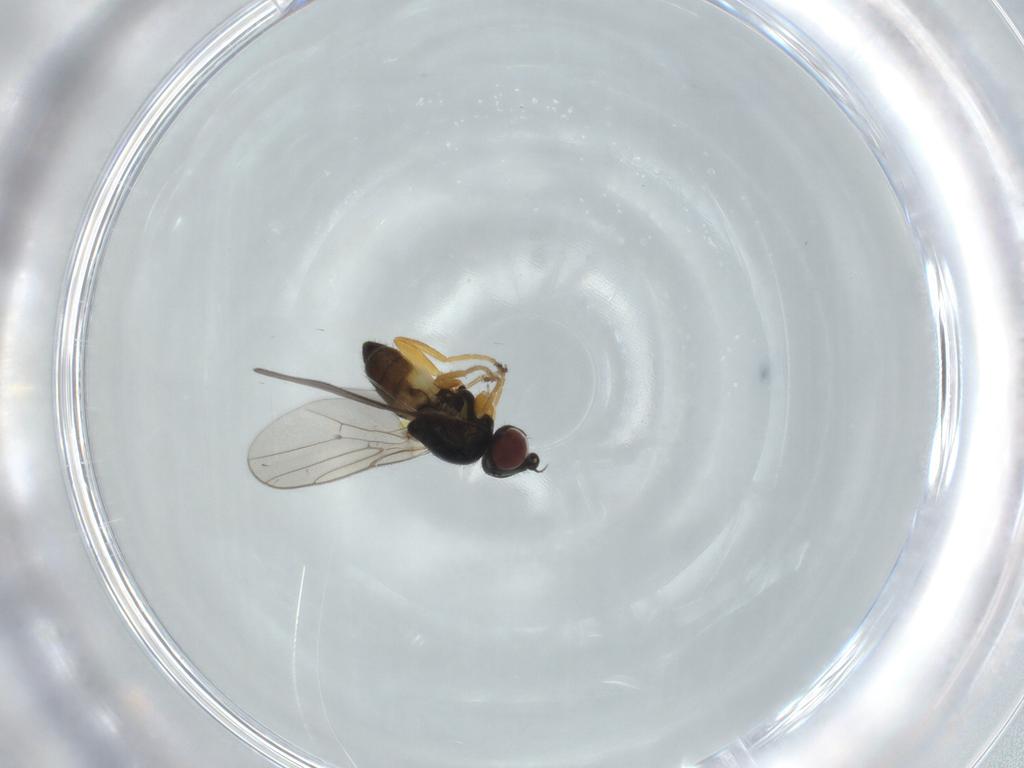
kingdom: Animalia
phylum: Arthropoda
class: Insecta
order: Diptera
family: Chloropidae
